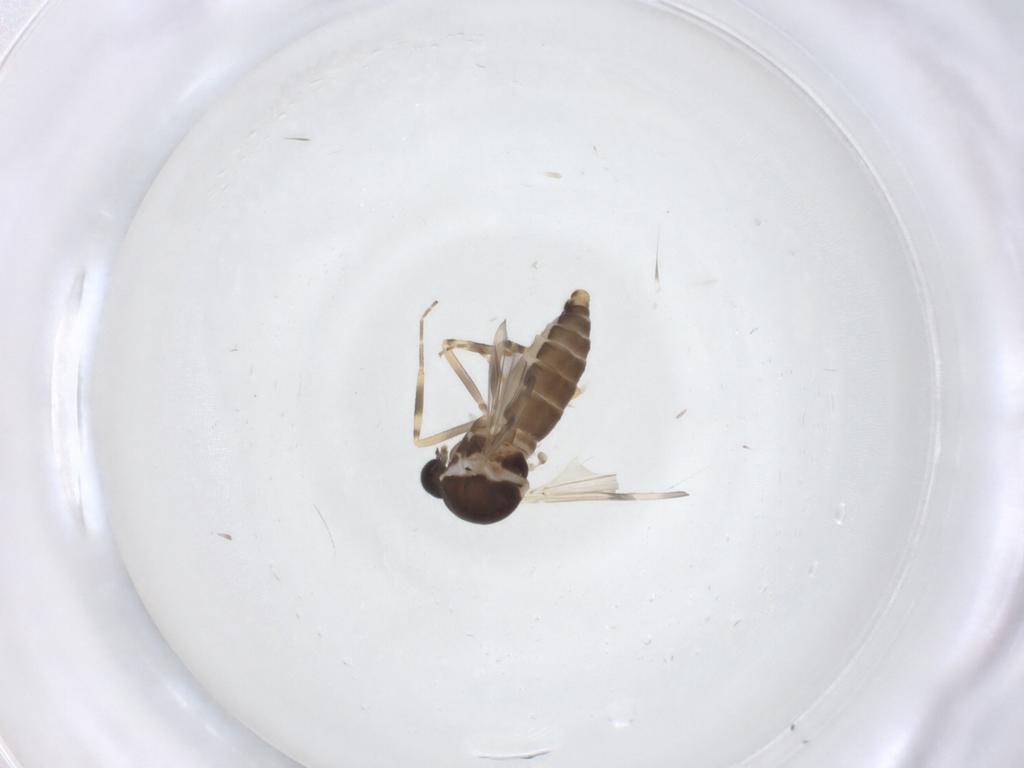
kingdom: Animalia
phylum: Arthropoda
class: Insecta
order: Diptera
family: Ceratopogonidae
